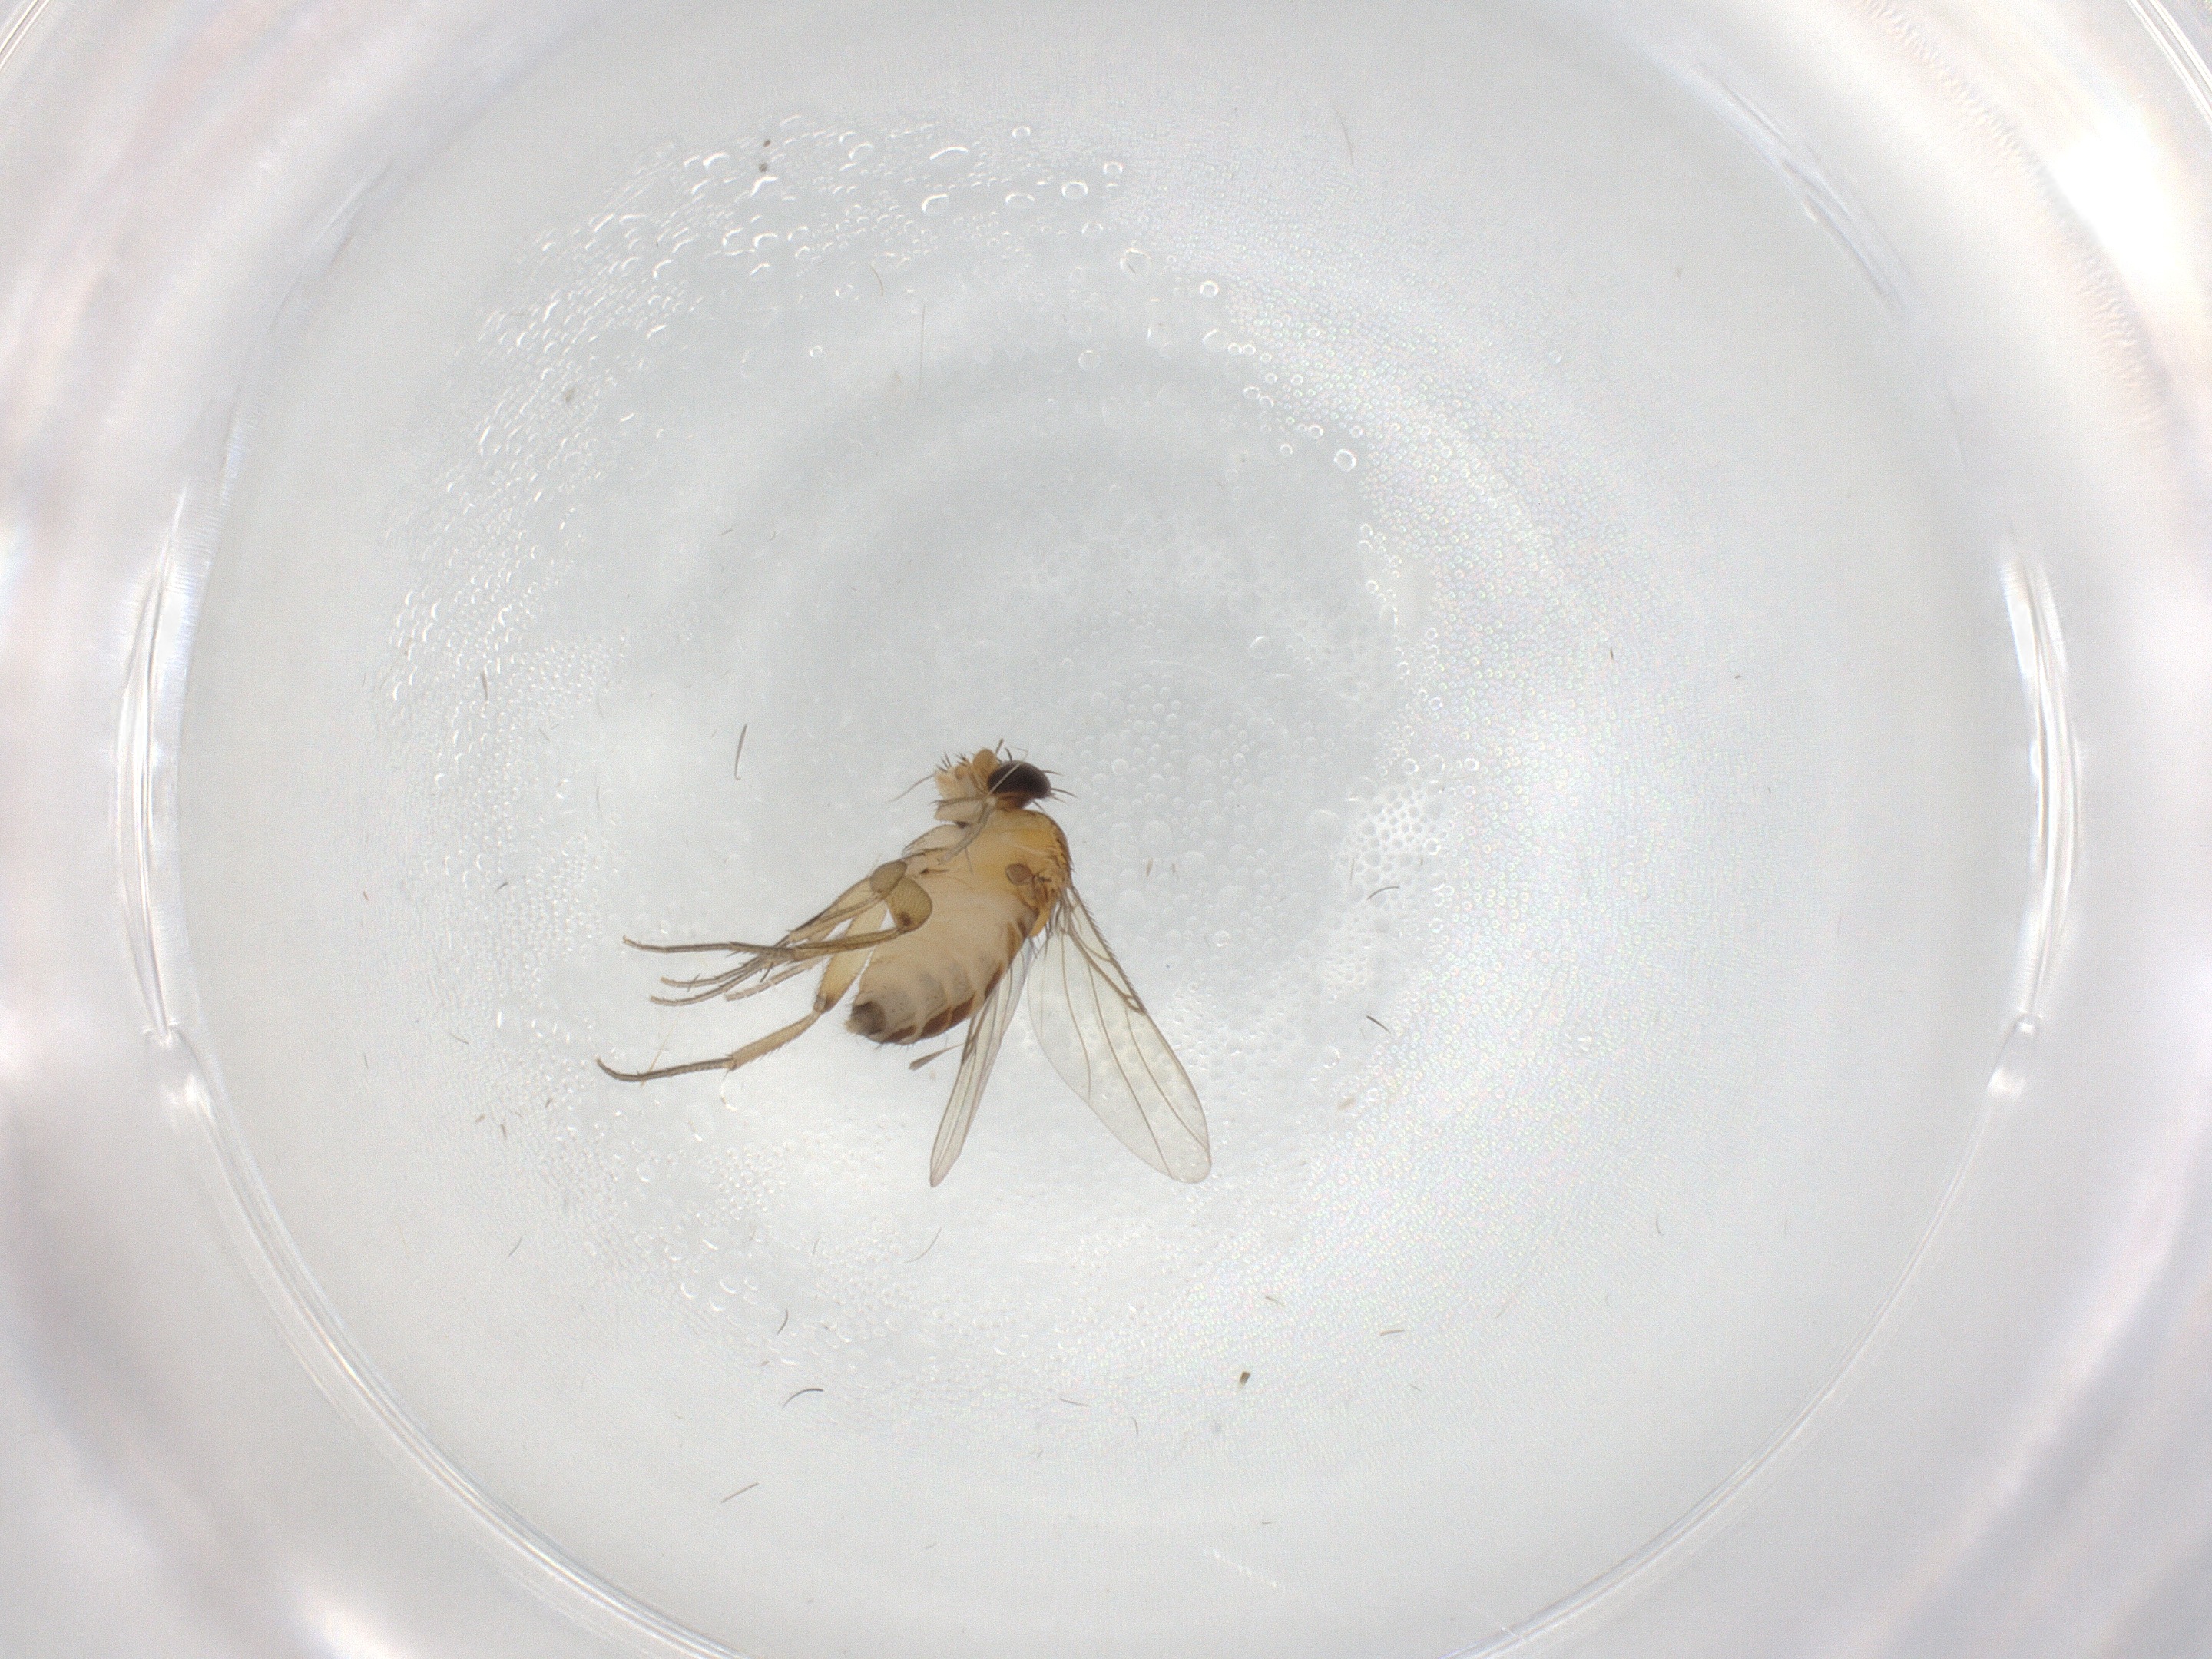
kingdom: Animalia
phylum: Arthropoda
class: Insecta
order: Diptera
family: Phoridae
